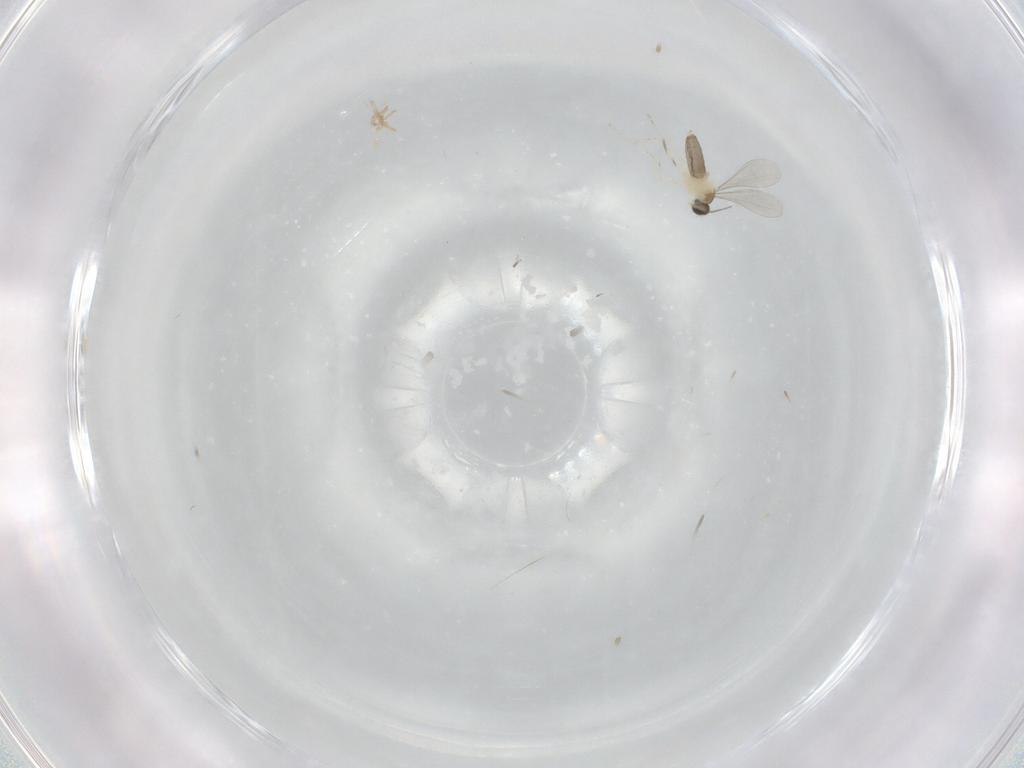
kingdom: Animalia
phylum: Arthropoda
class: Insecta
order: Diptera
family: Cecidomyiidae
